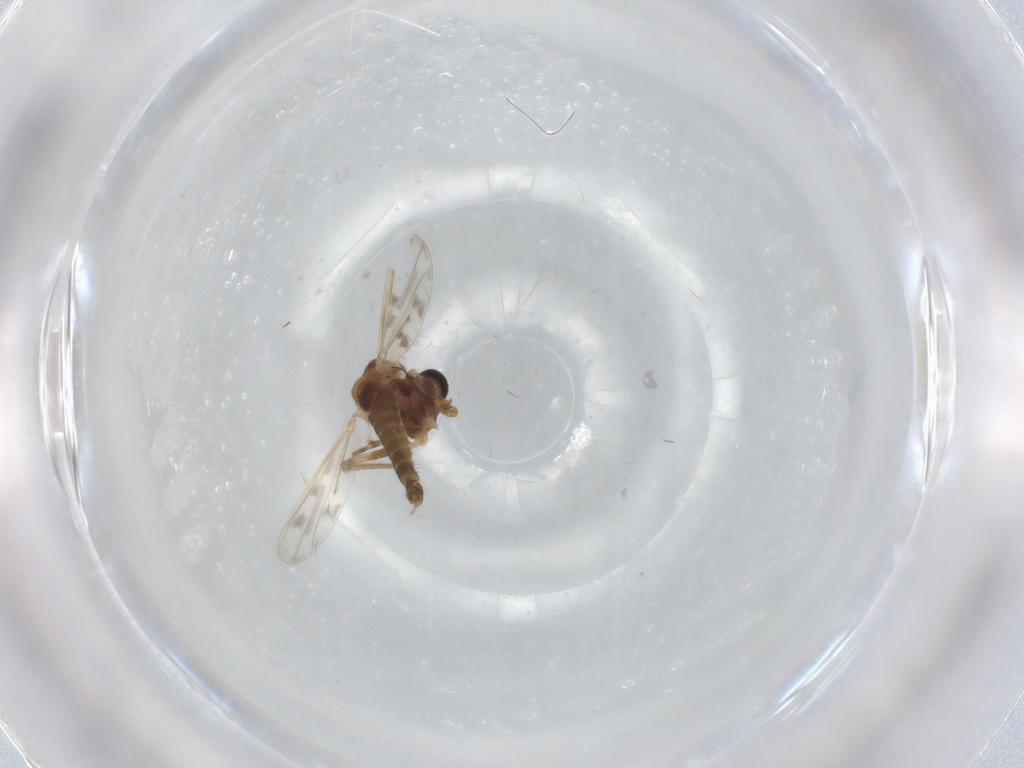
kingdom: Animalia
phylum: Arthropoda
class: Insecta
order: Diptera
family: Chironomidae
